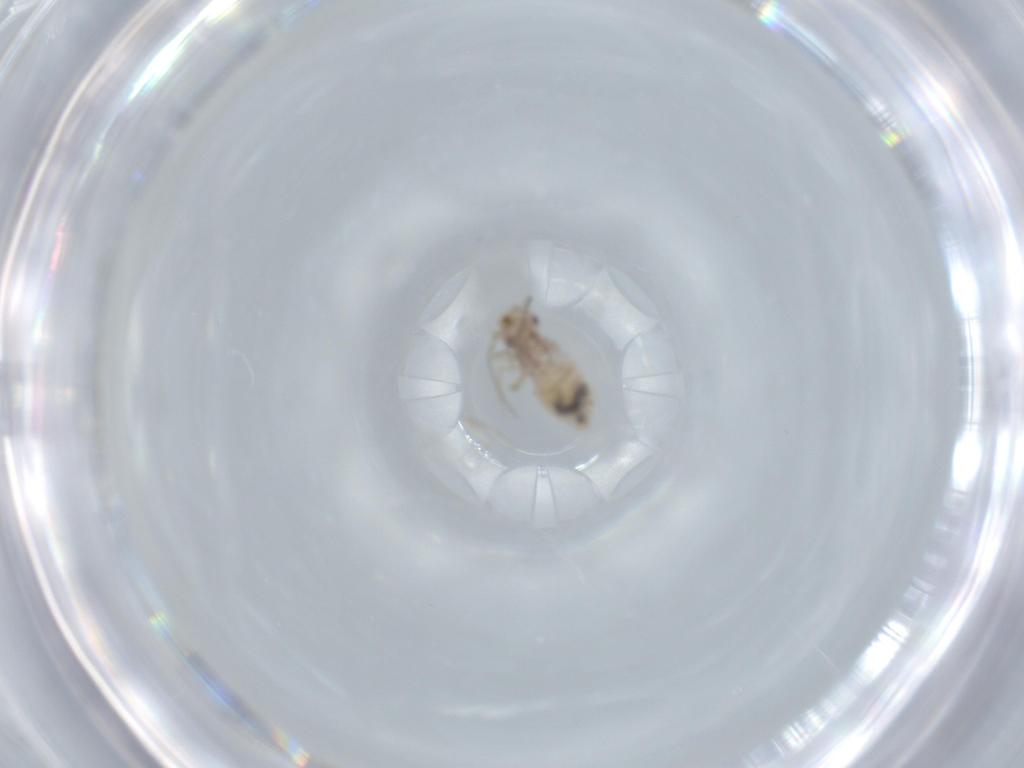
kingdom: Animalia
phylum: Arthropoda
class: Insecta
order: Psocodea
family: Caeciliusidae
